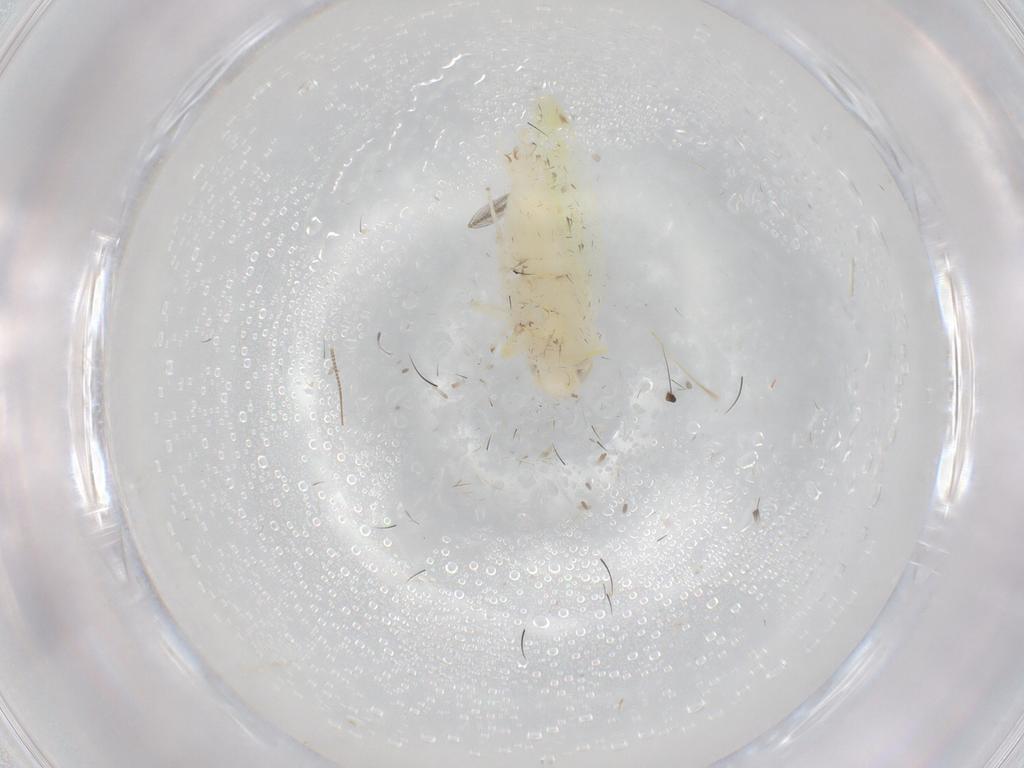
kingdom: Animalia
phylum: Arthropoda
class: Insecta
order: Hemiptera
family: Cicadellidae
